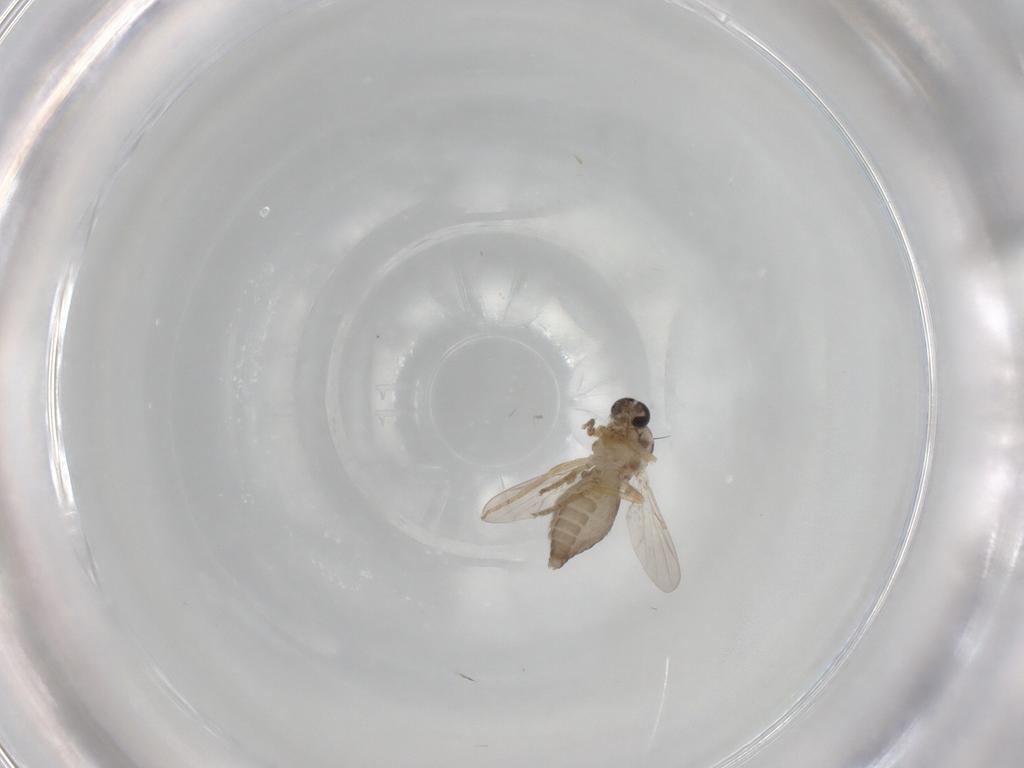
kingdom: Animalia
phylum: Arthropoda
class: Insecta
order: Diptera
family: Ceratopogonidae
